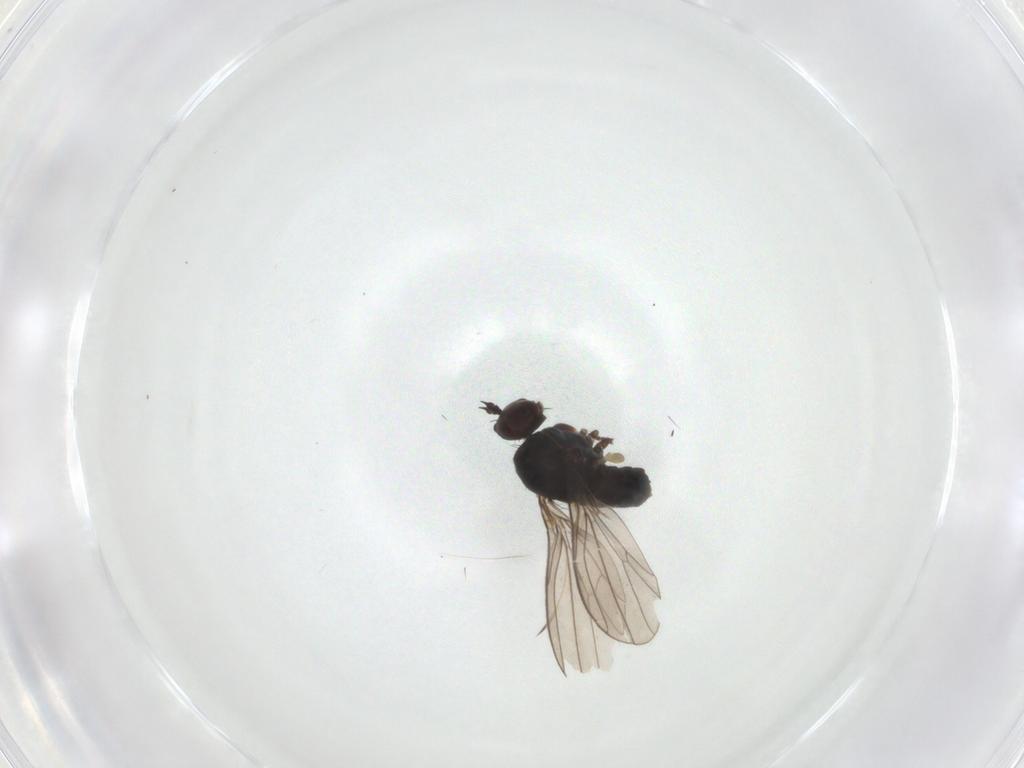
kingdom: Animalia
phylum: Arthropoda
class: Insecta
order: Diptera
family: Dolichopodidae
